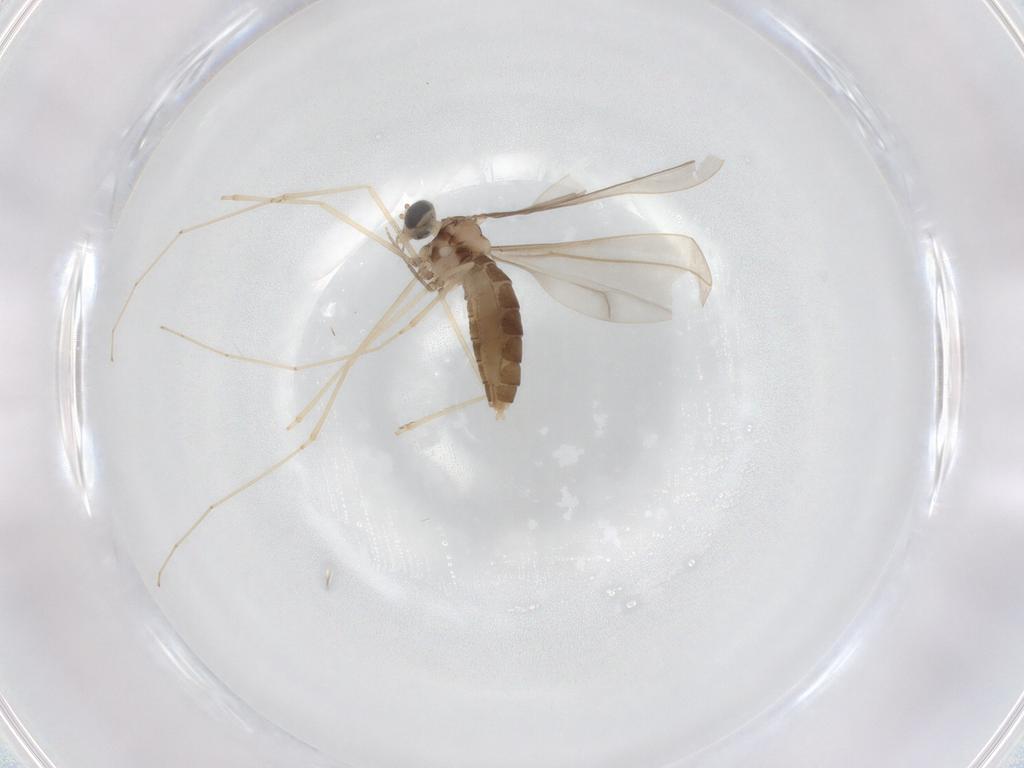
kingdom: Animalia
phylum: Arthropoda
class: Insecta
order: Diptera
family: Cecidomyiidae
